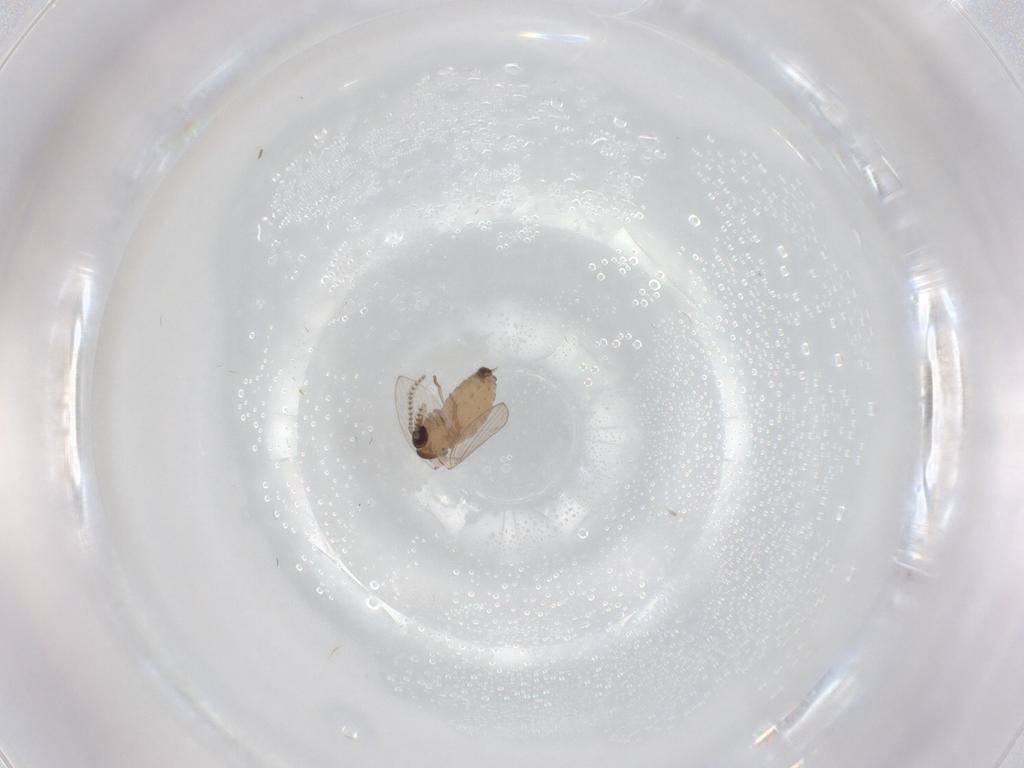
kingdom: Animalia
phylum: Arthropoda
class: Insecta
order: Diptera
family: Psychodidae
